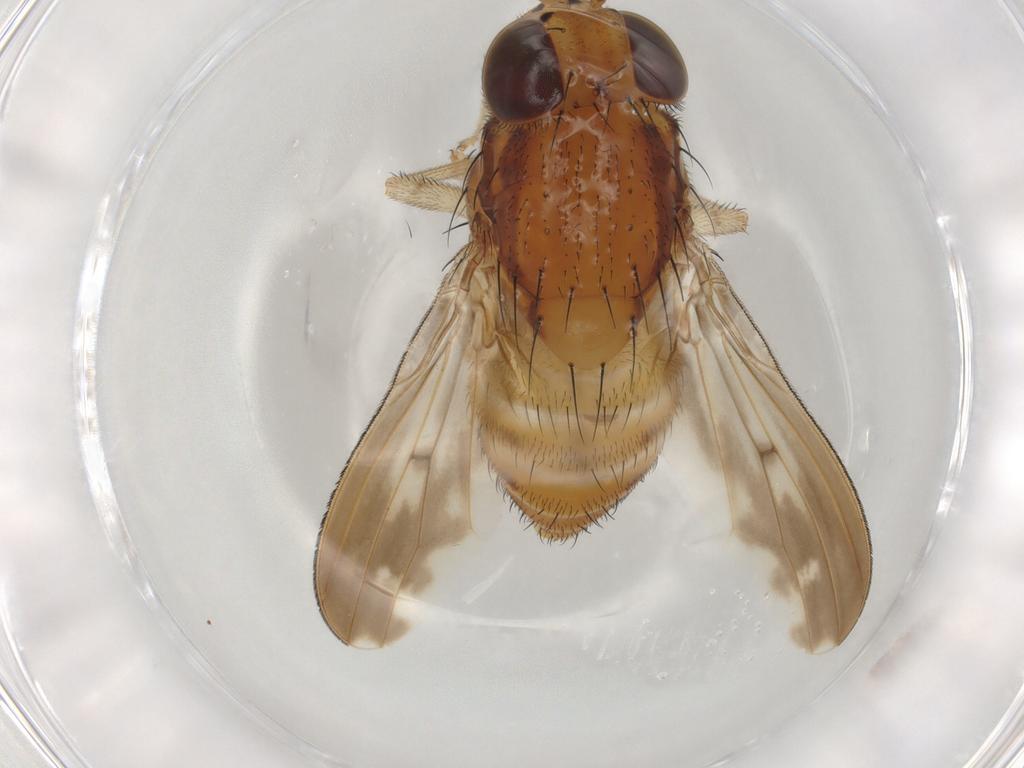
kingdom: Animalia
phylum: Arthropoda
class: Insecta
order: Diptera
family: Lauxaniidae
